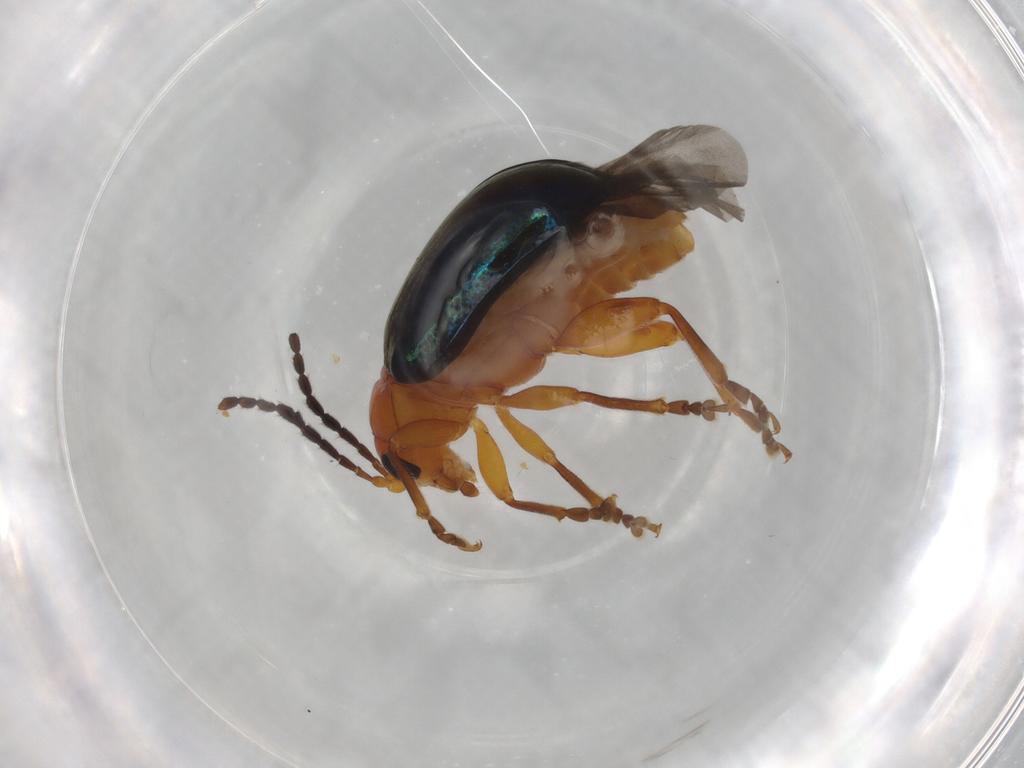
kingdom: Animalia
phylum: Arthropoda
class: Insecta
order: Coleoptera
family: Chrysomelidae
